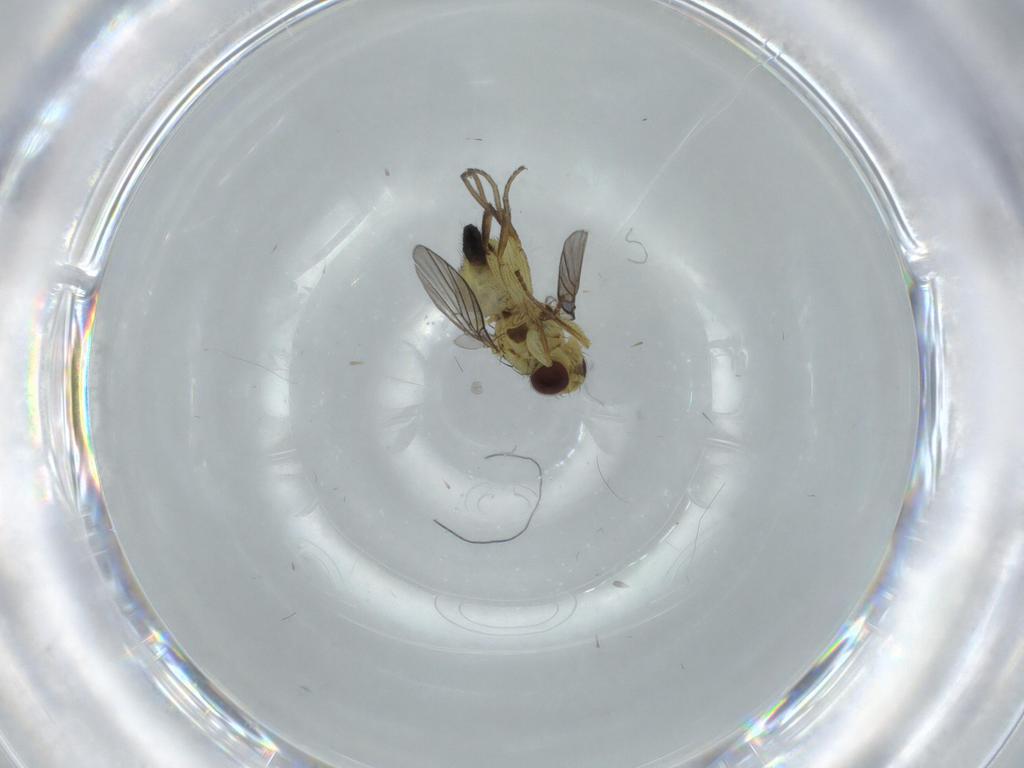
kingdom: Animalia
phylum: Arthropoda
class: Insecta
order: Diptera
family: Agromyzidae
